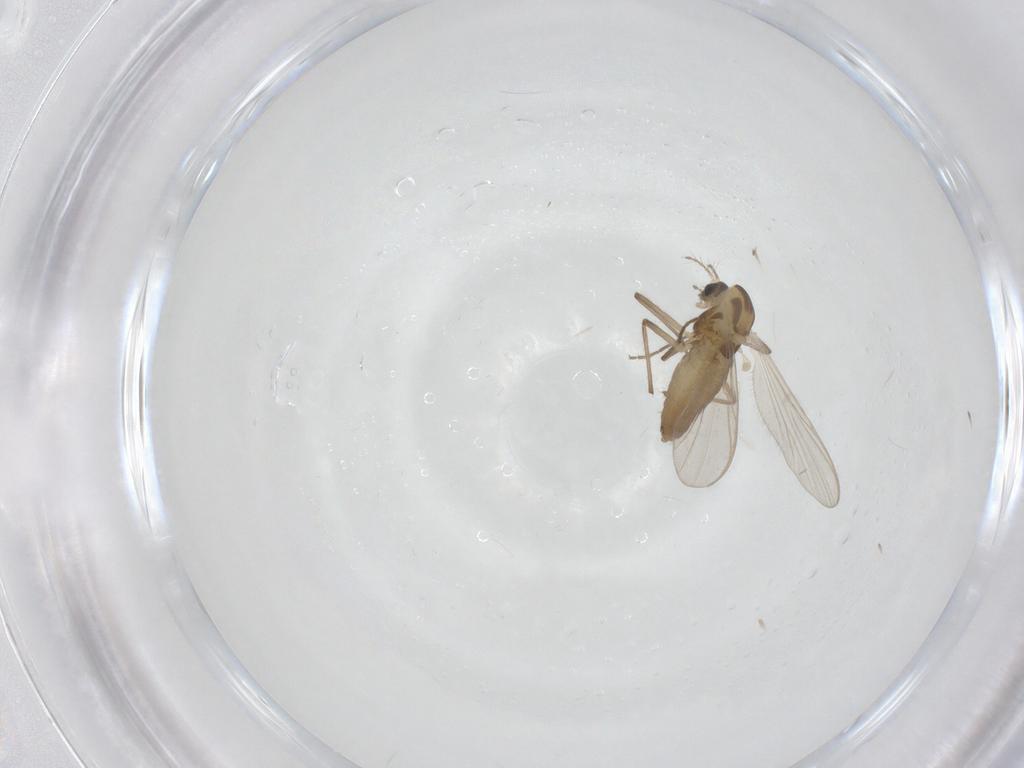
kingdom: Animalia
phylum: Arthropoda
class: Insecta
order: Diptera
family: Chironomidae
